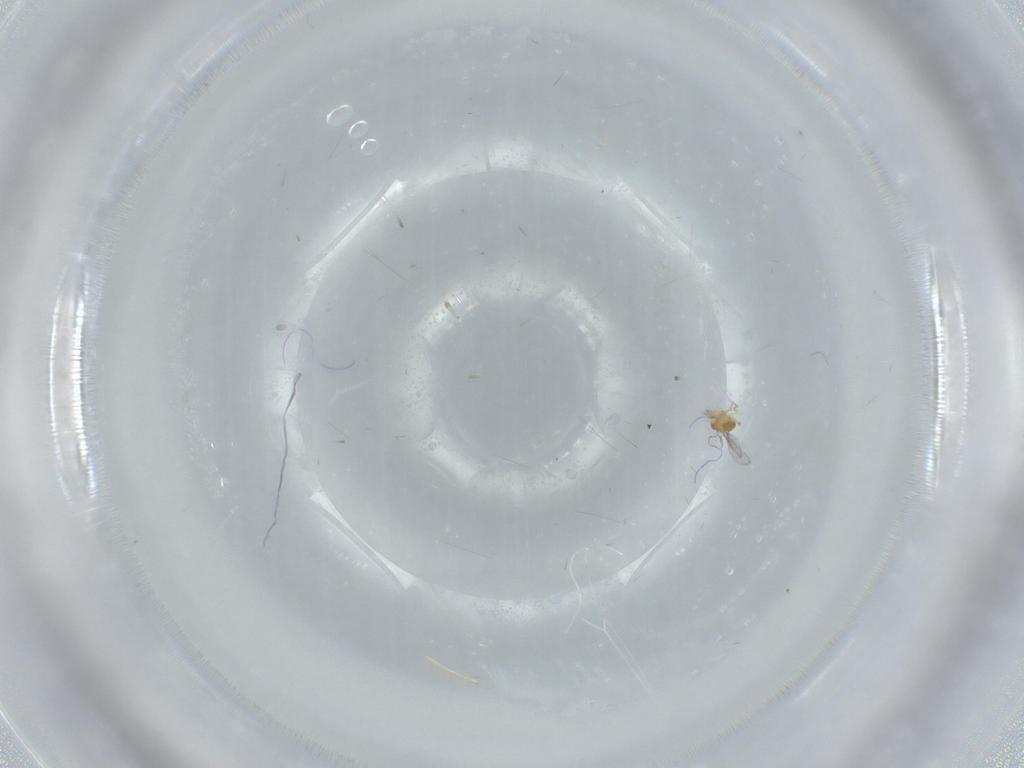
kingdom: Animalia
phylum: Arthropoda
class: Insecta
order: Hymenoptera
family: Trichogrammatidae
